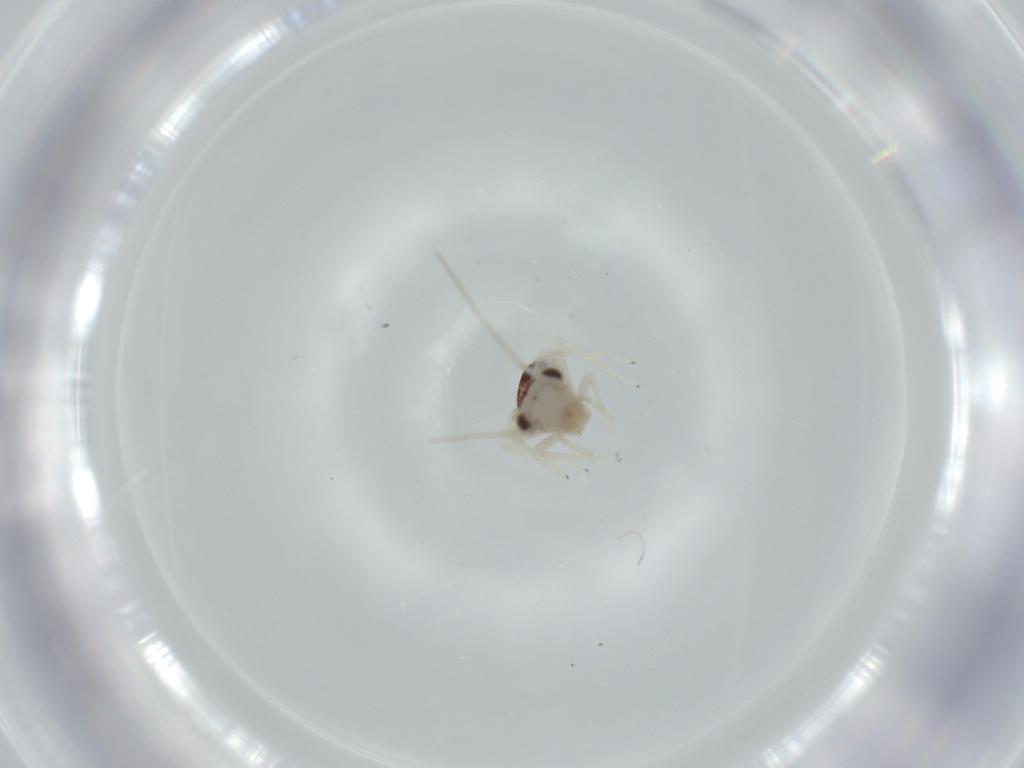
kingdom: Animalia
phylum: Arthropoda
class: Insecta
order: Psocodea
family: Caeciliusidae
